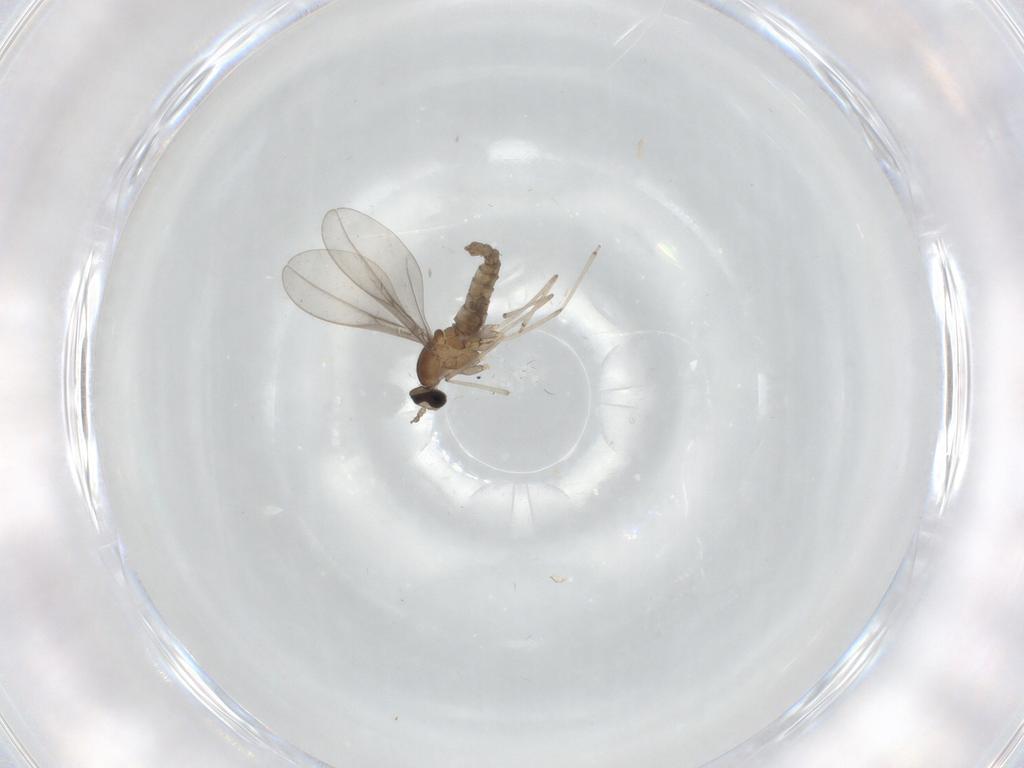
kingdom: Animalia
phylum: Arthropoda
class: Insecta
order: Diptera
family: Cecidomyiidae
